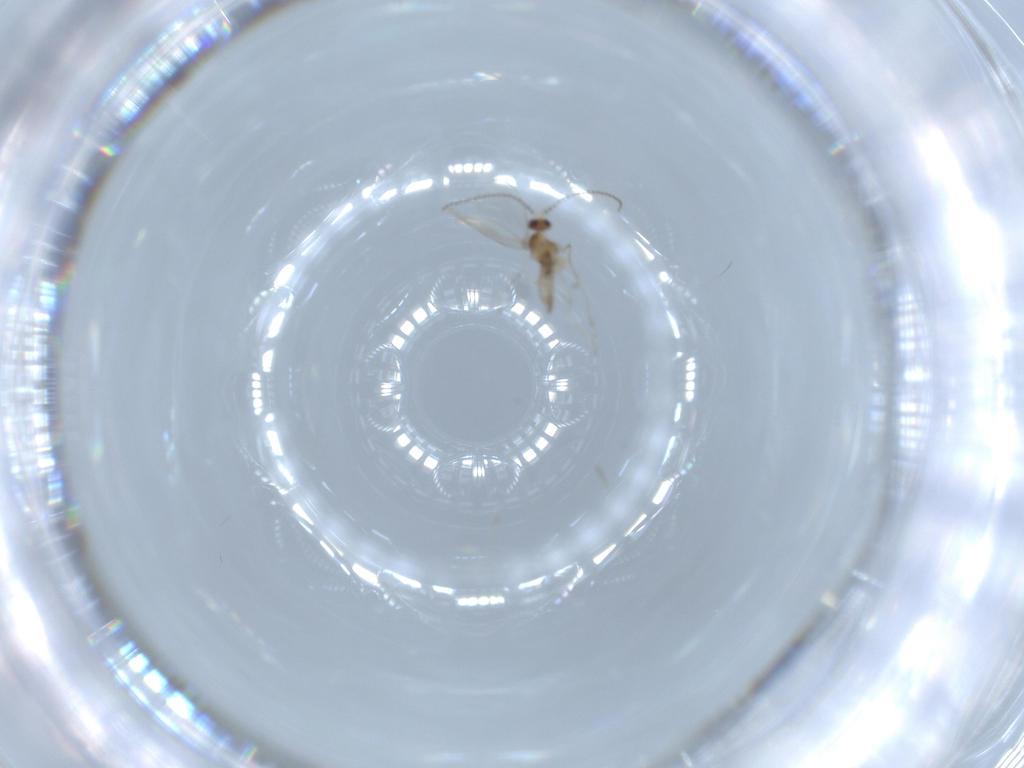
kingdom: Animalia
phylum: Arthropoda
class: Insecta
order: Diptera
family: Cecidomyiidae
